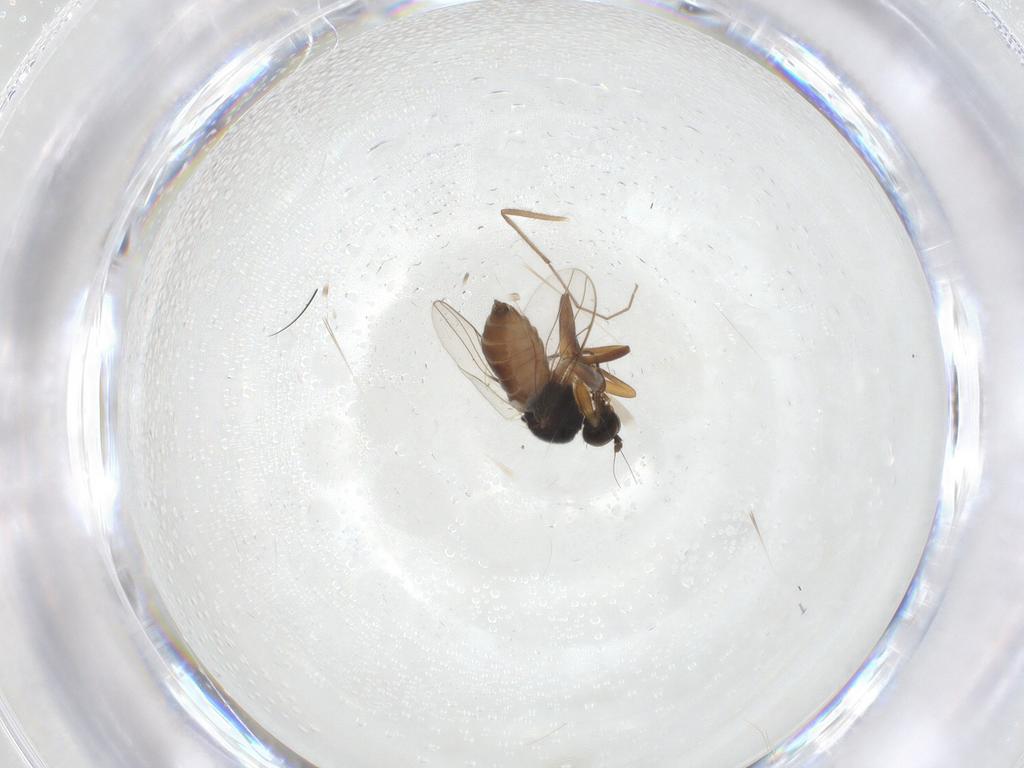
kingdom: Animalia
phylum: Arthropoda
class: Insecta
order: Diptera
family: Hybotidae
